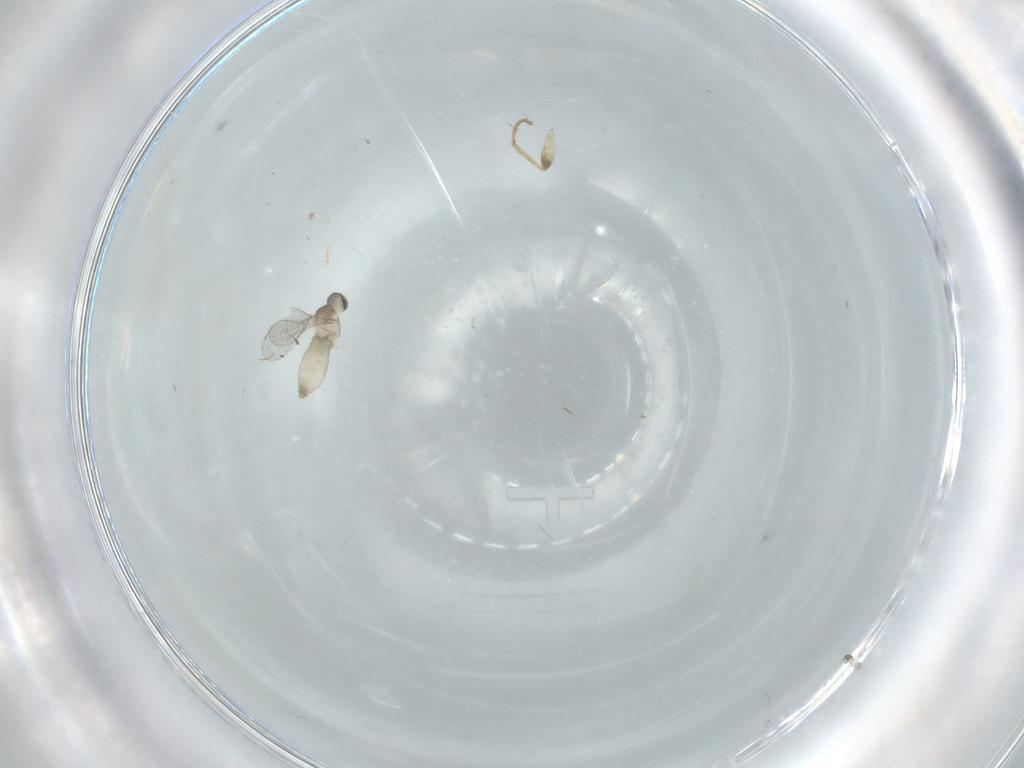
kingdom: Animalia
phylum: Arthropoda
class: Insecta
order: Diptera
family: Scatopsidae
